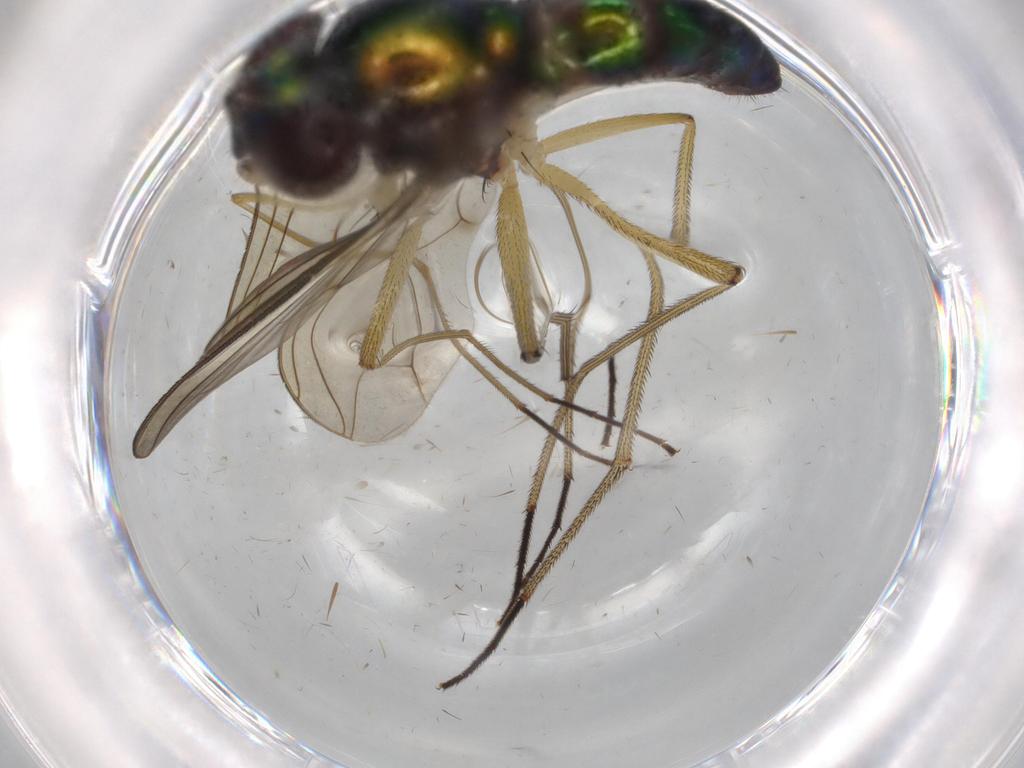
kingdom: Animalia
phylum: Arthropoda
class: Insecta
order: Diptera
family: Dolichopodidae
